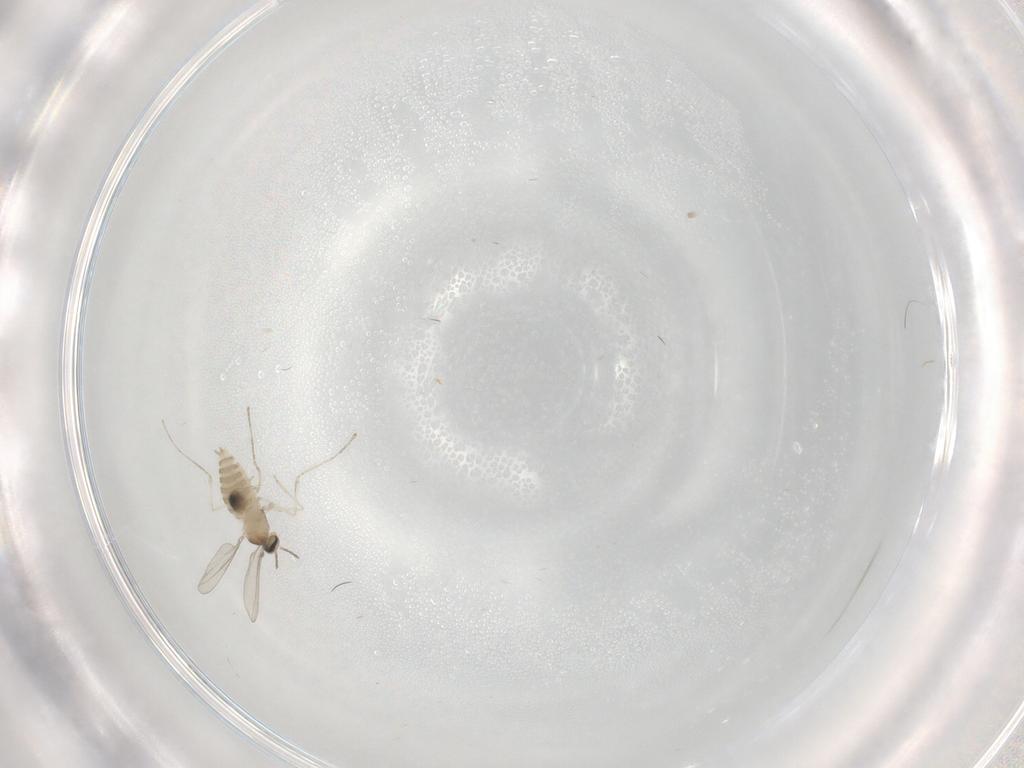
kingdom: Animalia
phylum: Arthropoda
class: Insecta
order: Diptera
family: Cecidomyiidae
